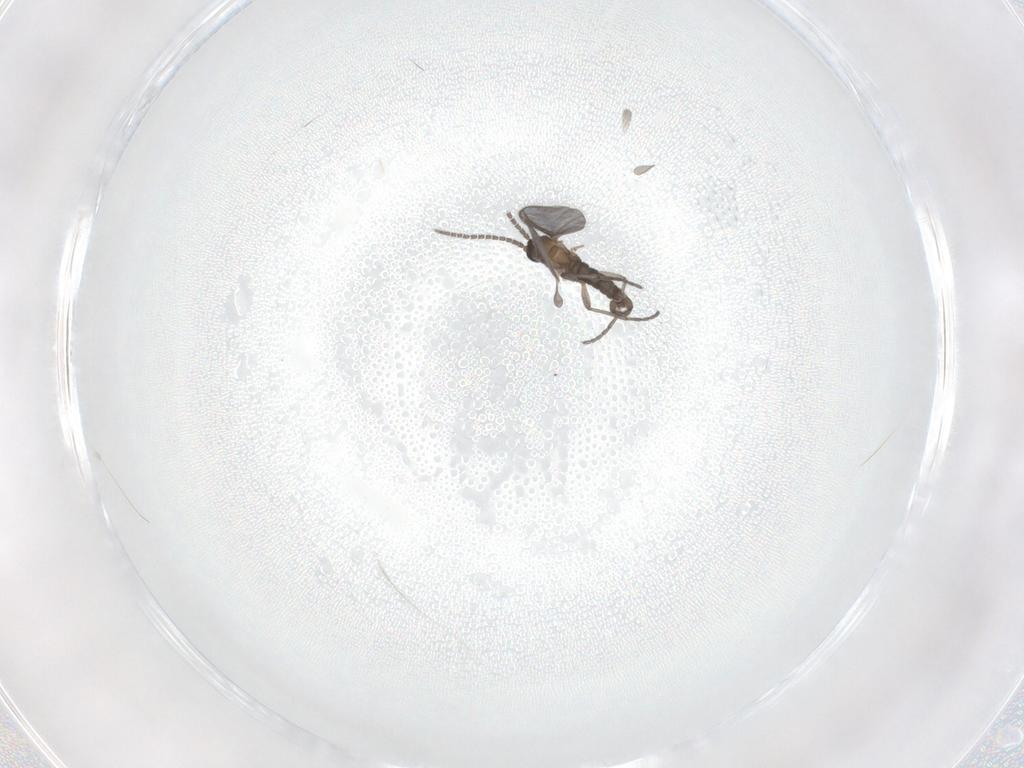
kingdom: Animalia
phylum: Arthropoda
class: Insecta
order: Diptera
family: Sciaridae
